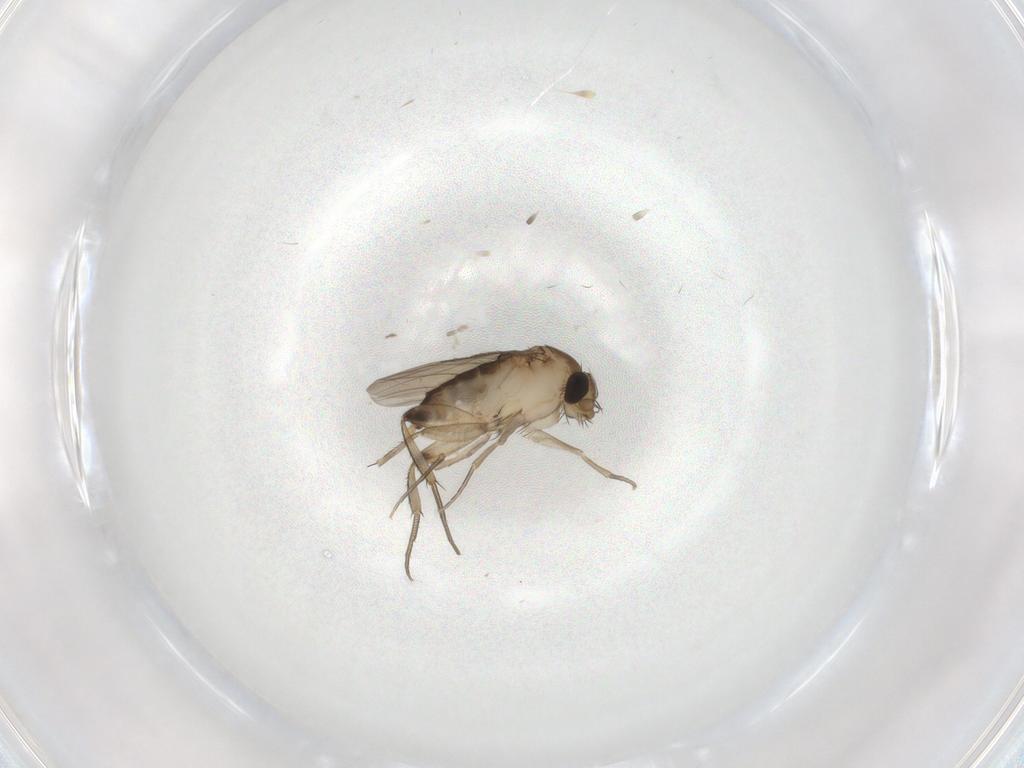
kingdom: Animalia
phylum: Arthropoda
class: Insecta
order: Diptera
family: Phoridae
